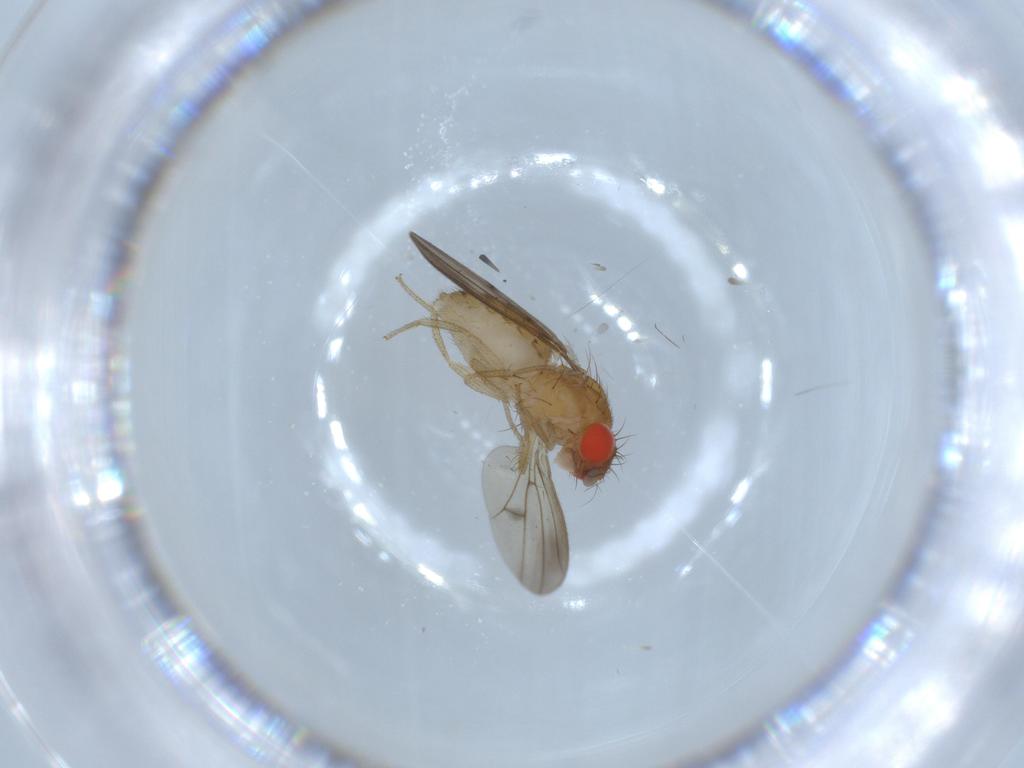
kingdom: Animalia
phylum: Arthropoda
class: Insecta
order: Diptera
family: Drosophilidae
